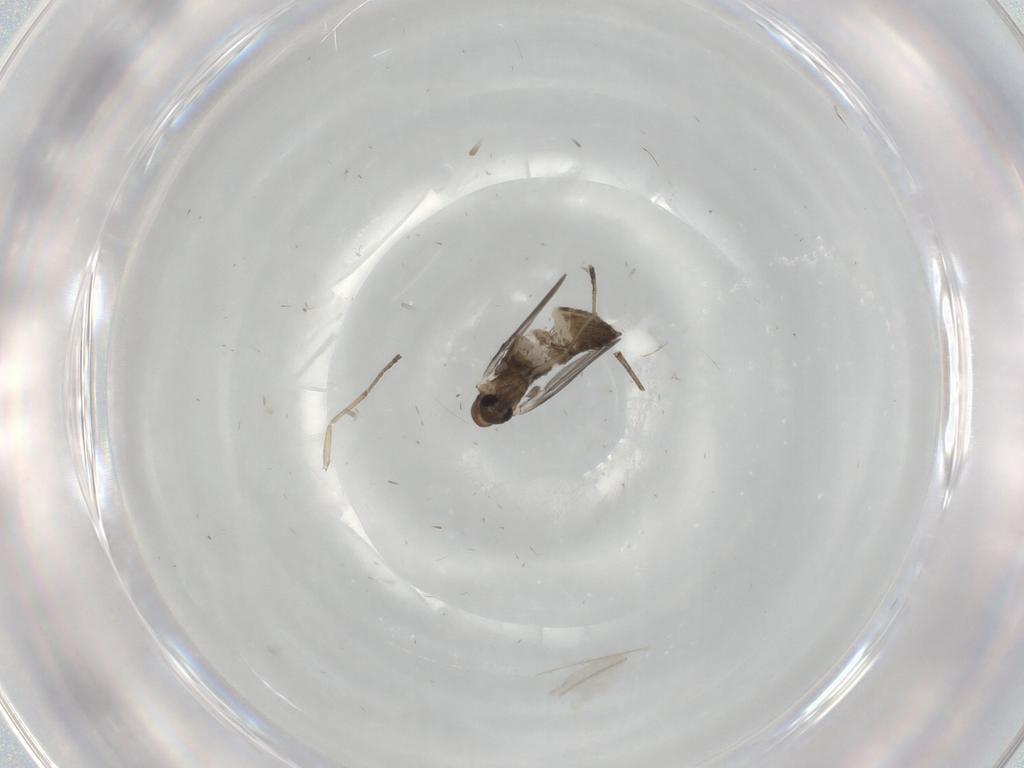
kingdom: Animalia
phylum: Arthropoda
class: Insecta
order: Diptera
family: Cecidomyiidae
